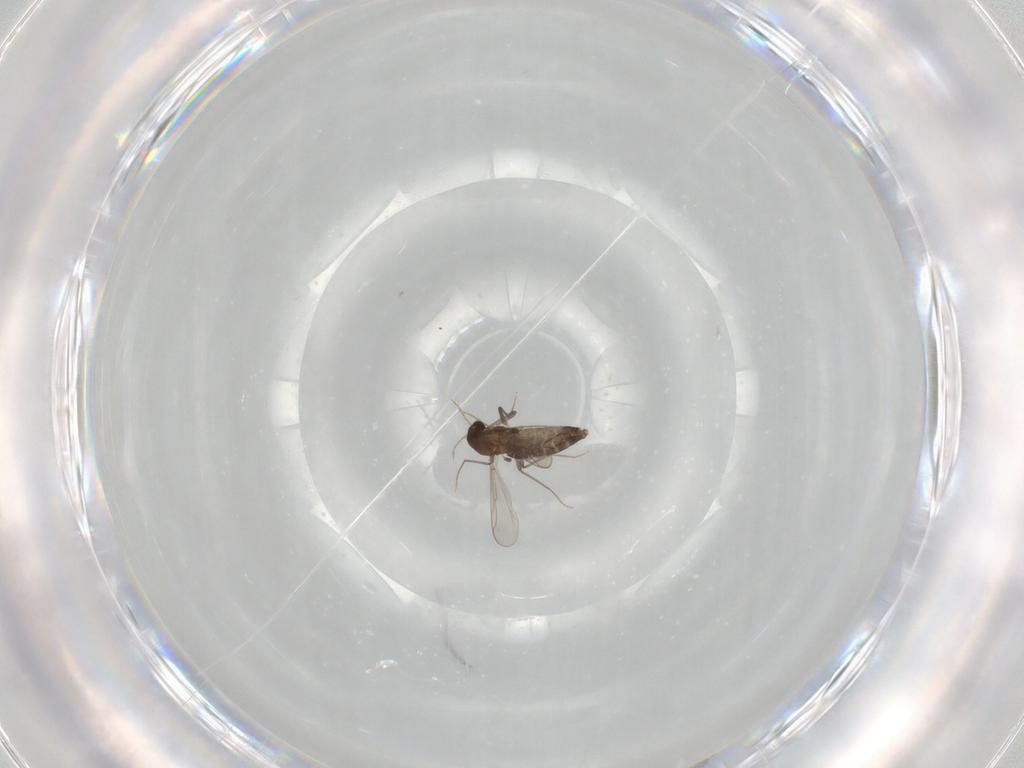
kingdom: Animalia
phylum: Arthropoda
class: Insecta
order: Diptera
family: Chironomidae
